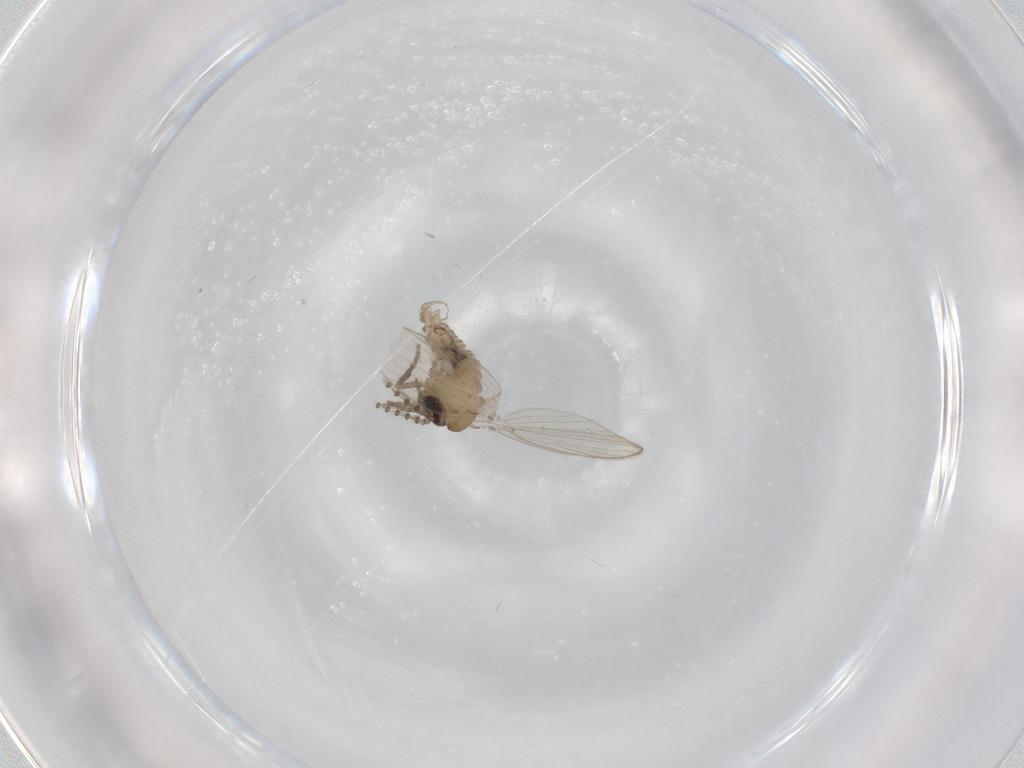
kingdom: Animalia
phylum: Arthropoda
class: Insecta
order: Diptera
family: Psychodidae
